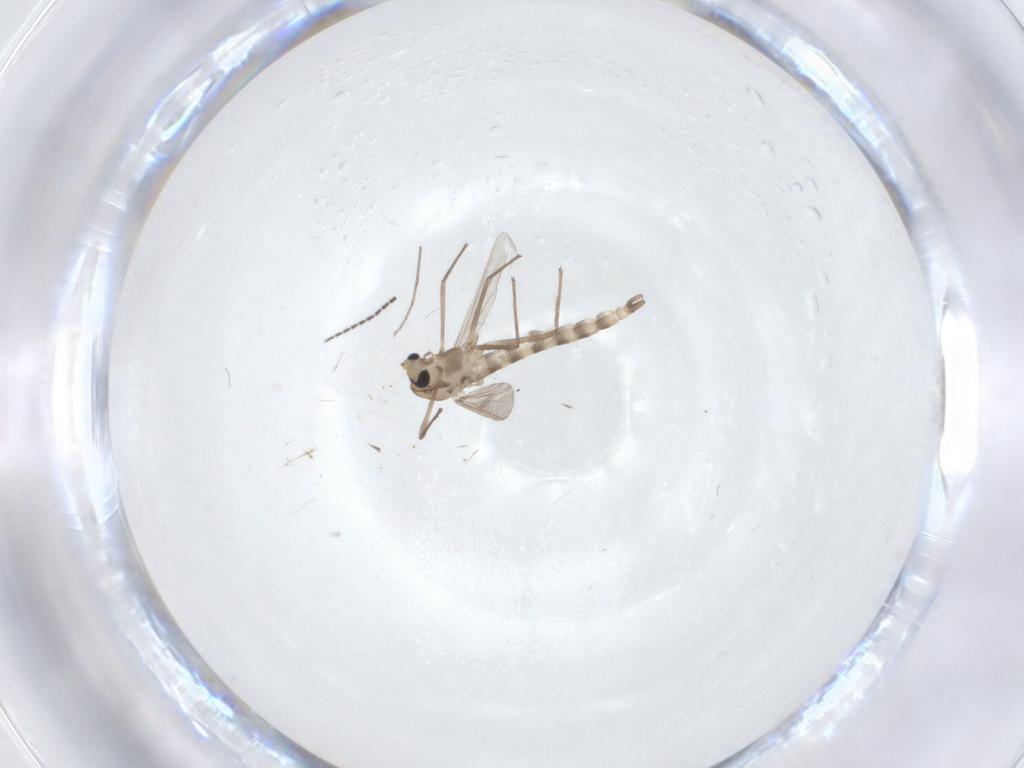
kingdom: Animalia
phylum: Arthropoda
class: Insecta
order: Diptera
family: Chironomidae
